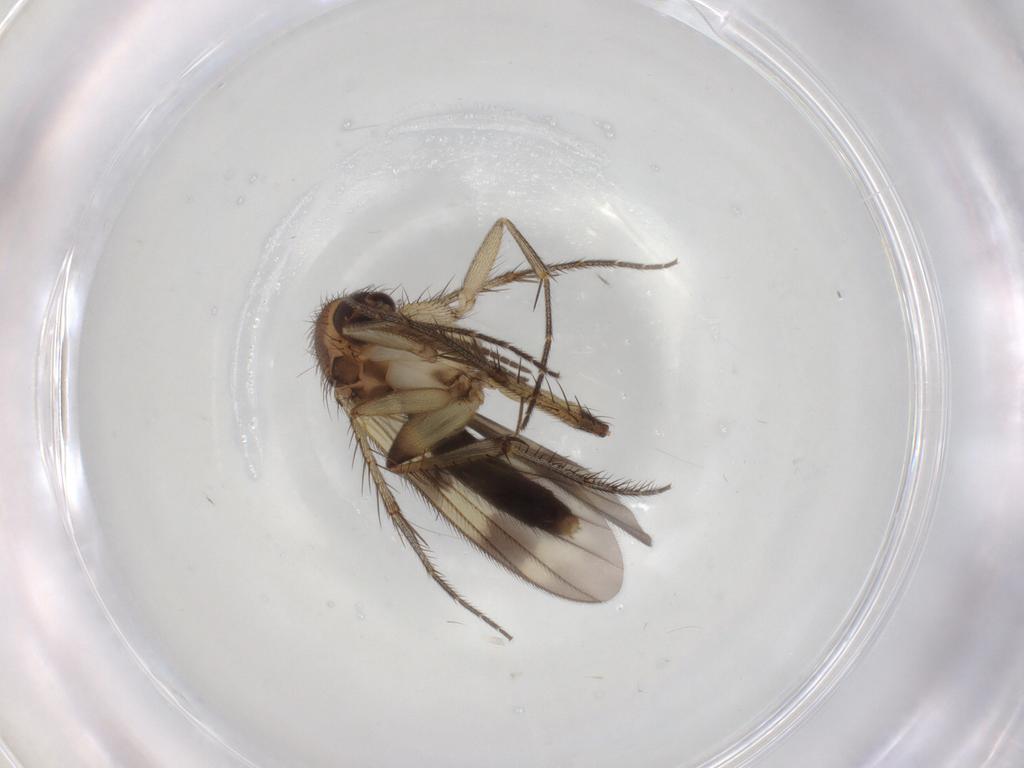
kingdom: Animalia
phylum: Arthropoda
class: Insecta
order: Diptera
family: Mycetophilidae
